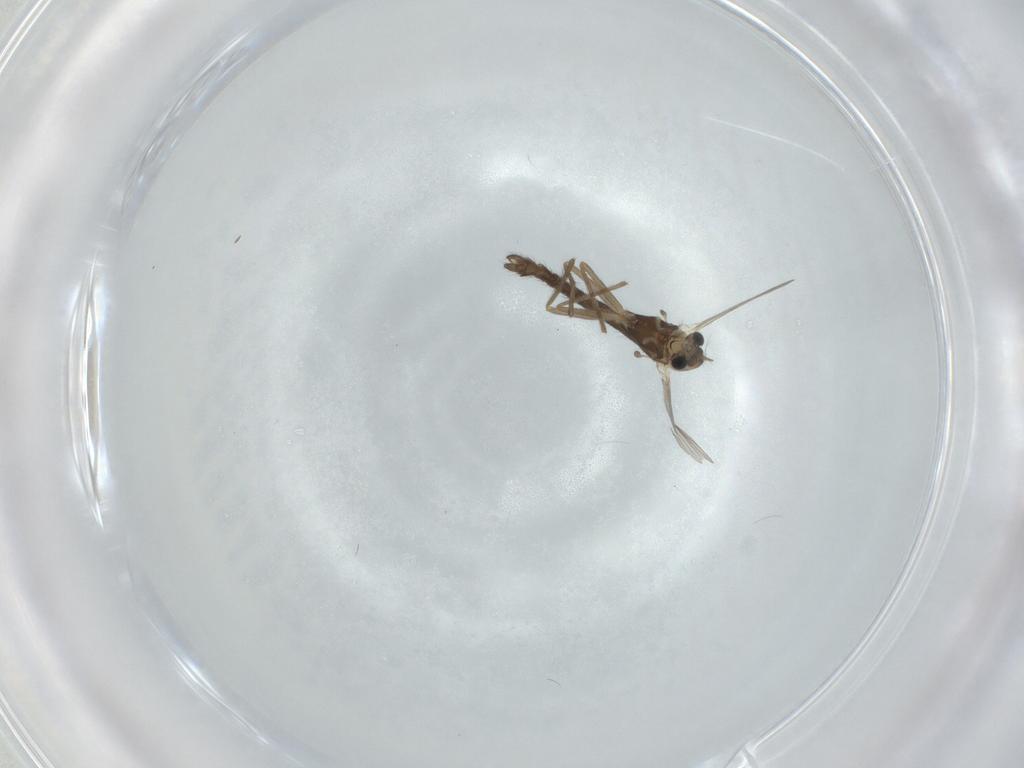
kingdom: Animalia
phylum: Arthropoda
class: Insecta
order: Diptera
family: Chironomidae
